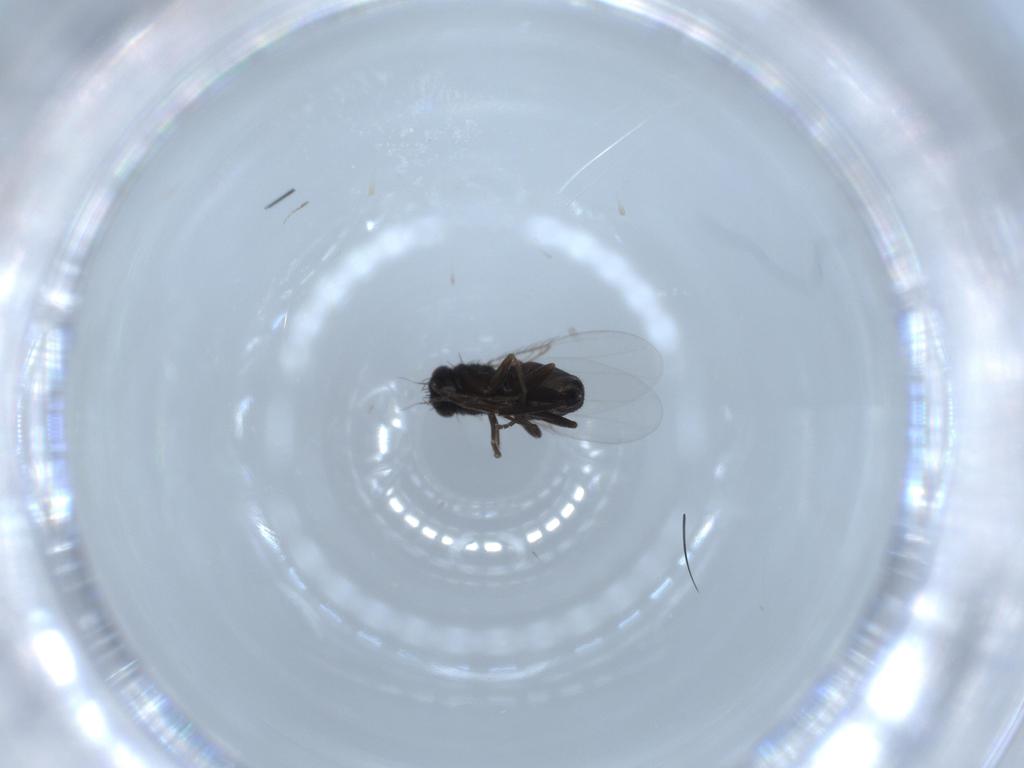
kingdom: Animalia
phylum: Arthropoda
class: Insecta
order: Diptera
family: Phoridae
